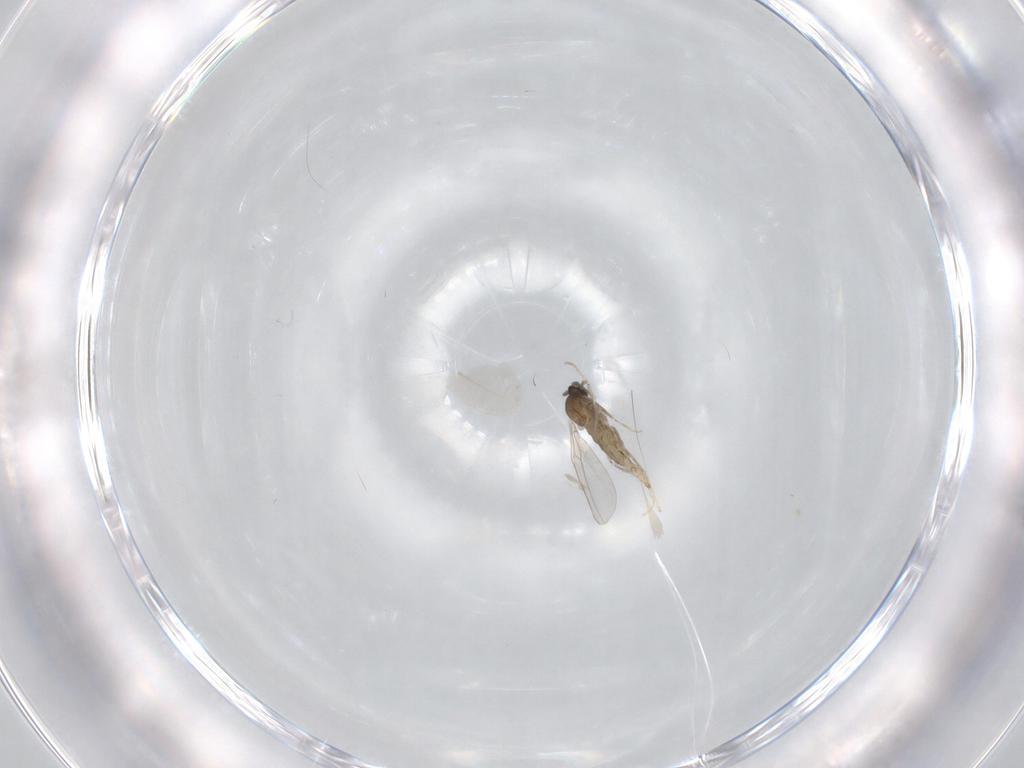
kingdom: Animalia
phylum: Arthropoda
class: Insecta
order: Diptera
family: Cecidomyiidae
